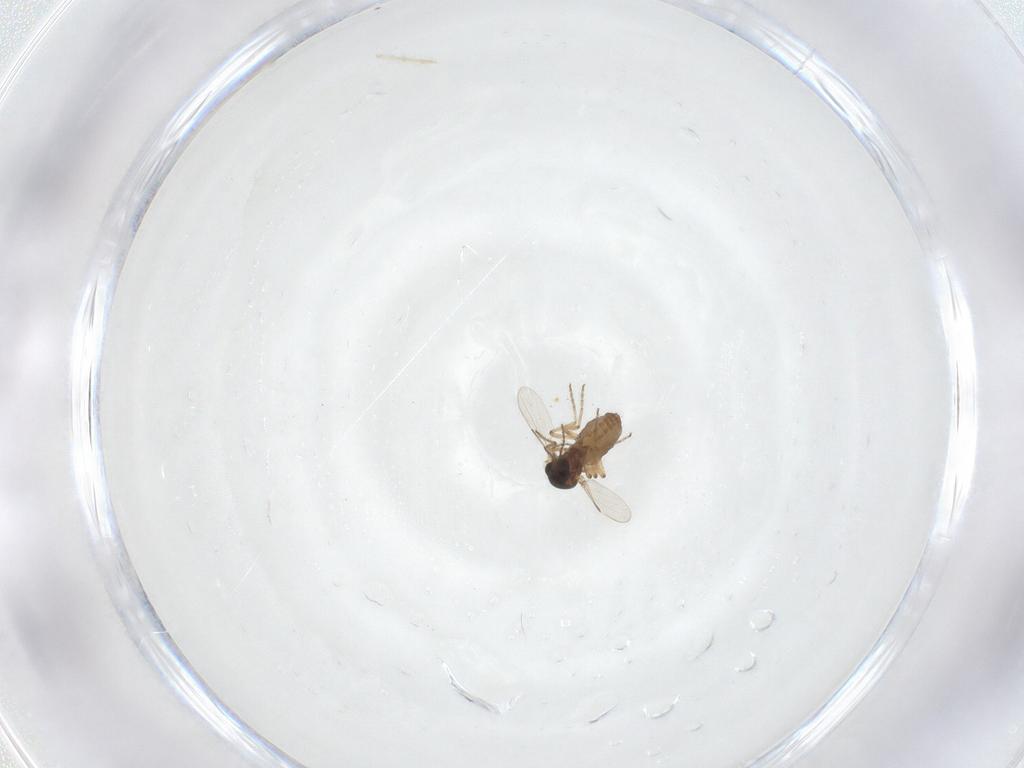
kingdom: Animalia
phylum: Arthropoda
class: Insecta
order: Diptera
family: Ceratopogonidae
